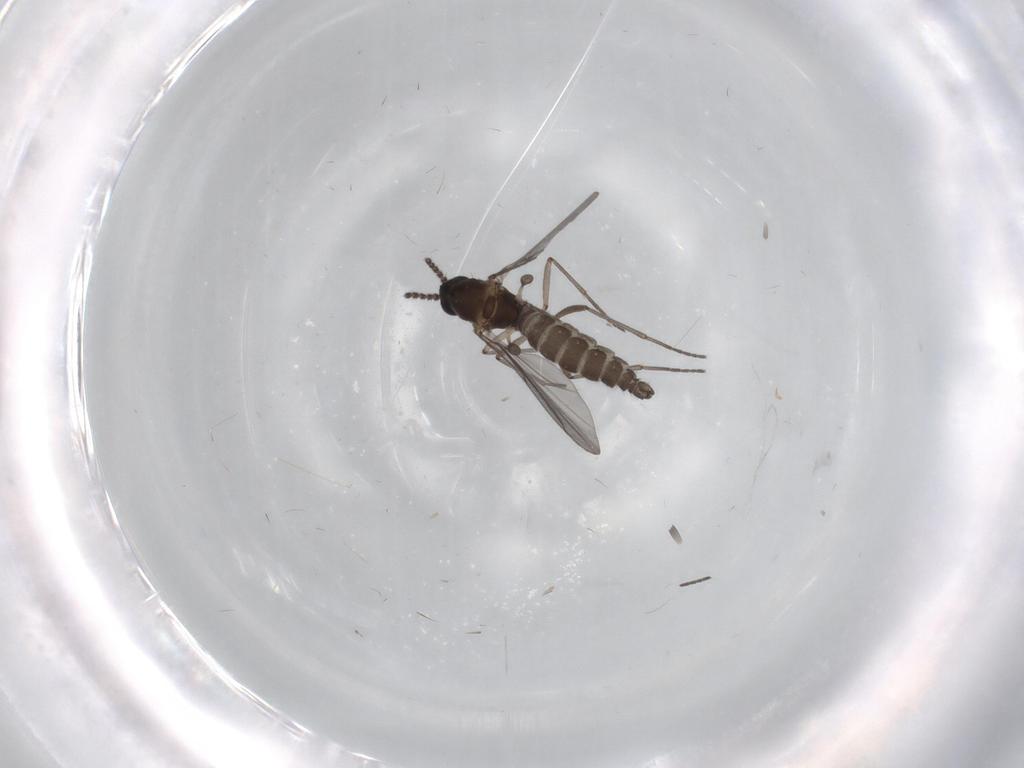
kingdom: Animalia
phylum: Arthropoda
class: Insecta
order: Diptera
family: Cecidomyiidae
